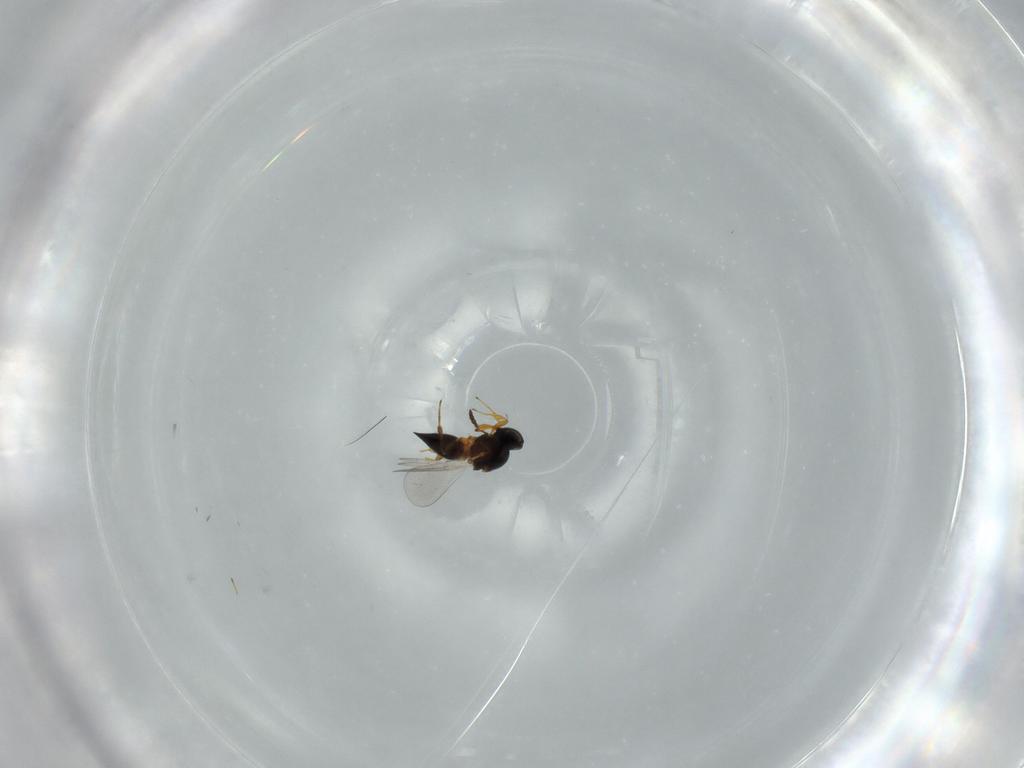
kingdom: Animalia
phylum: Arthropoda
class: Insecta
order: Hymenoptera
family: Platygastridae
